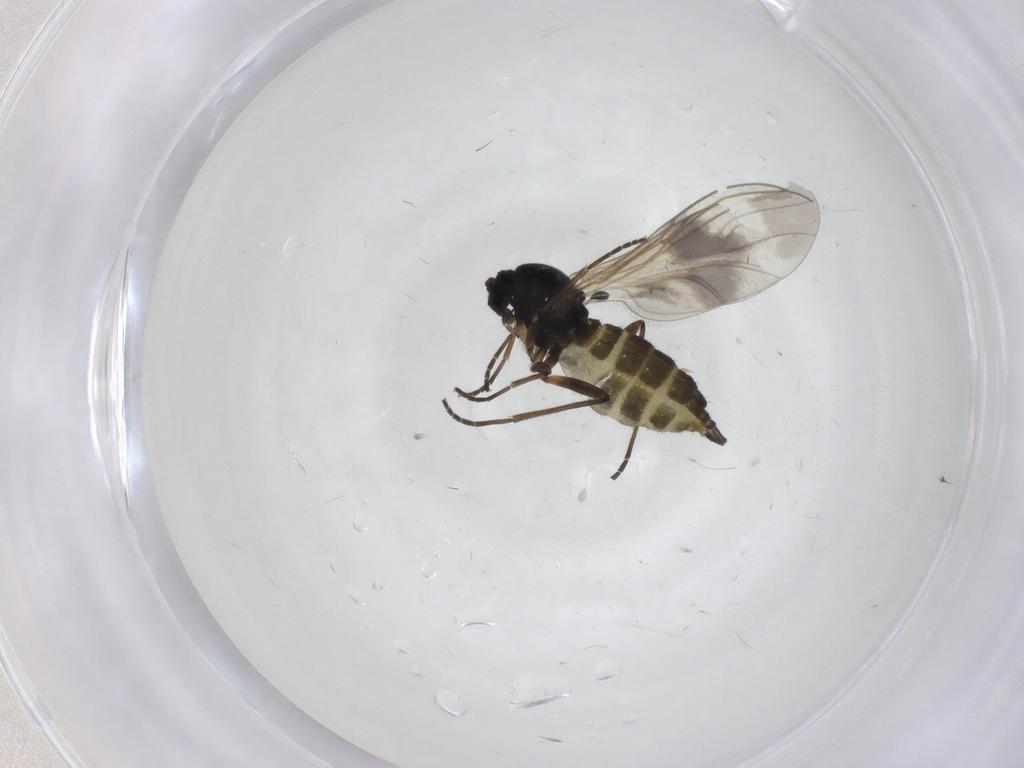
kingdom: Animalia
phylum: Arthropoda
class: Insecta
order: Diptera
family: Sciaridae
